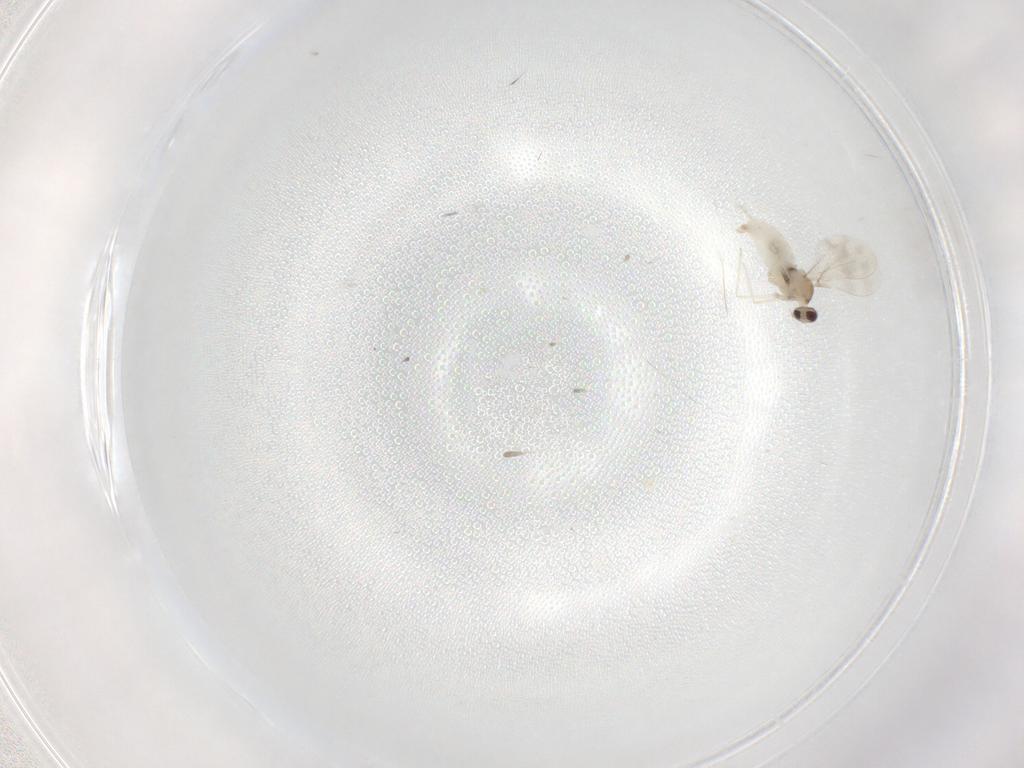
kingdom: Animalia
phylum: Arthropoda
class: Insecta
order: Diptera
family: Cecidomyiidae
